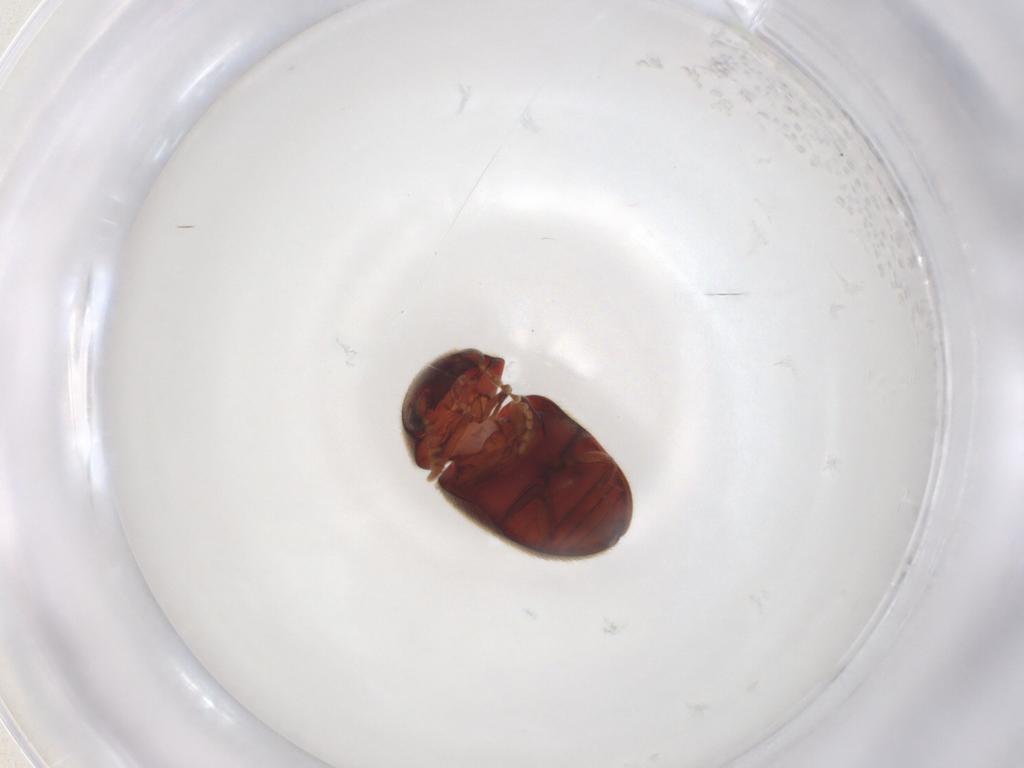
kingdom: Animalia
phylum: Arthropoda
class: Insecta
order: Coleoptera
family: Ptinidae
